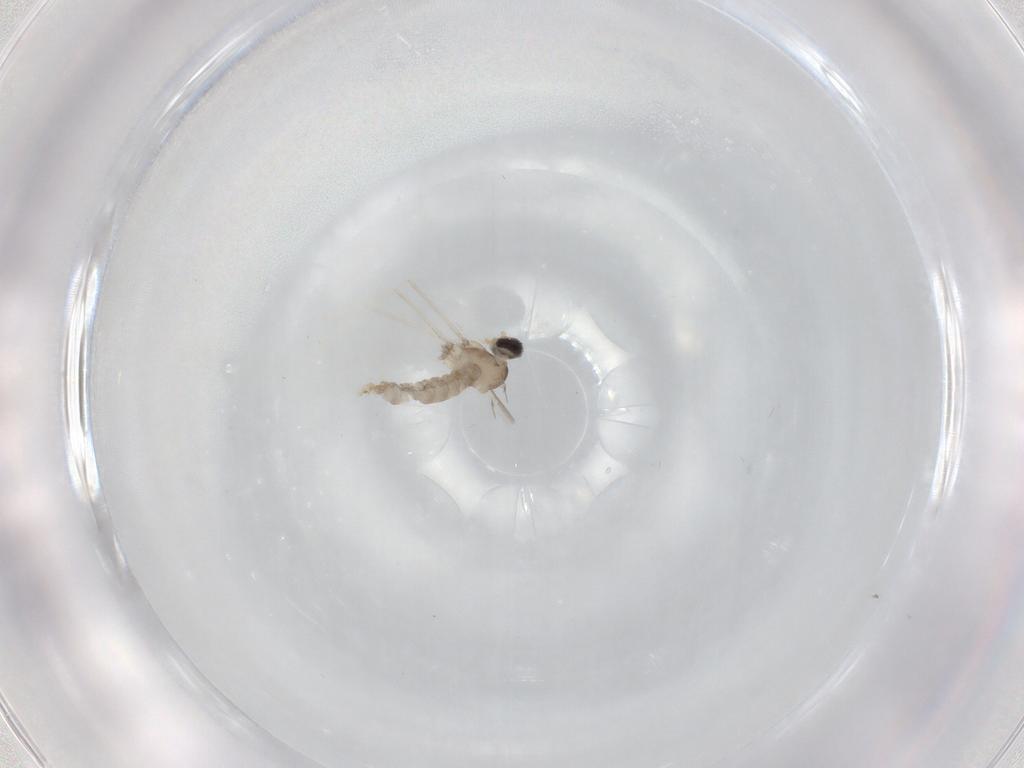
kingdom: Animalia
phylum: Arthropoda
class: Insecta
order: Diptera
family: Cecidomyiidae
